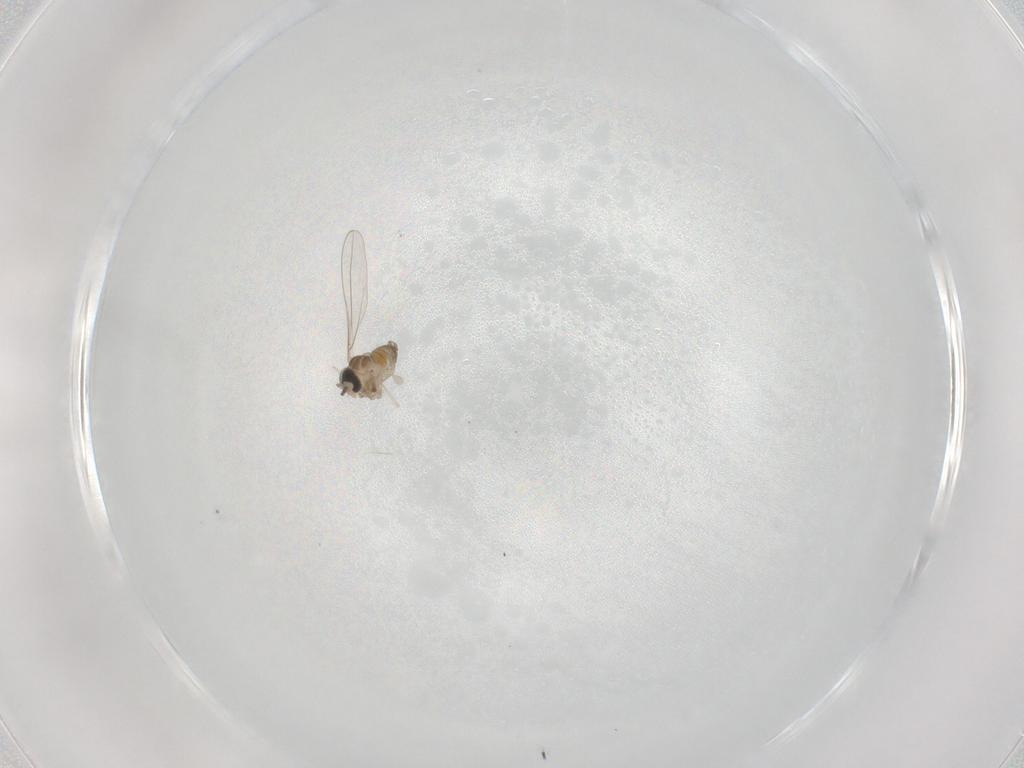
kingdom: Animalia
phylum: Arthropoda
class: Insecta
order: Diptera
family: Cecidomyiidae
